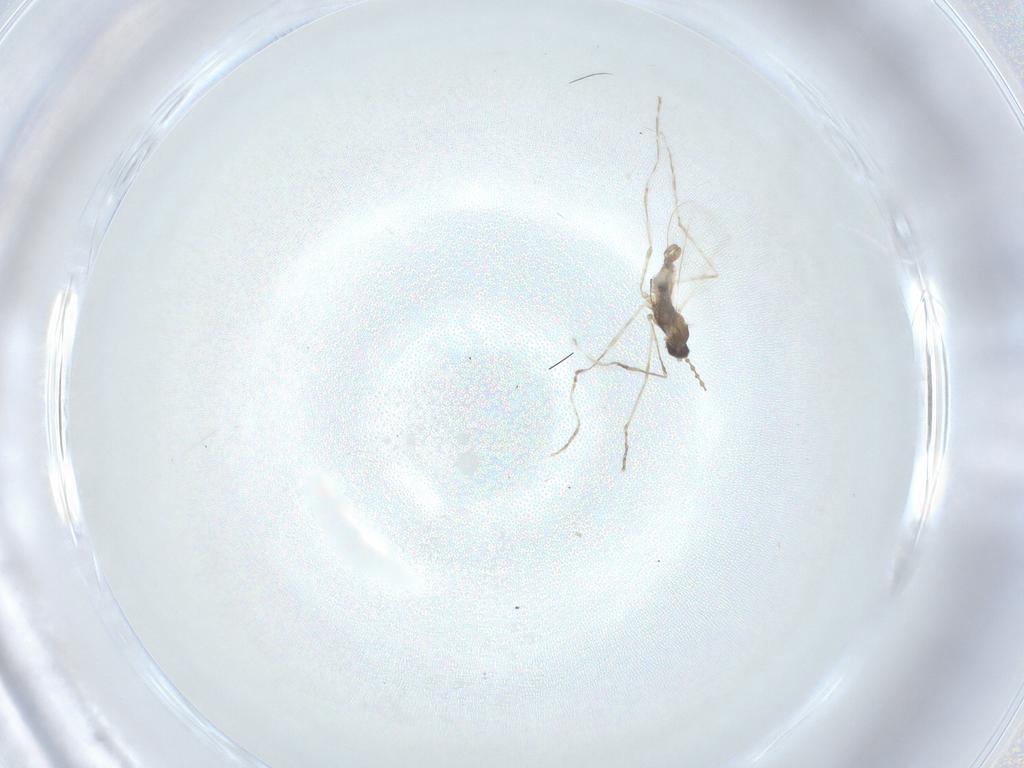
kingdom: Animalia
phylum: Arthropoda
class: Insecta
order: Diptera
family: Cecidomyiidae
